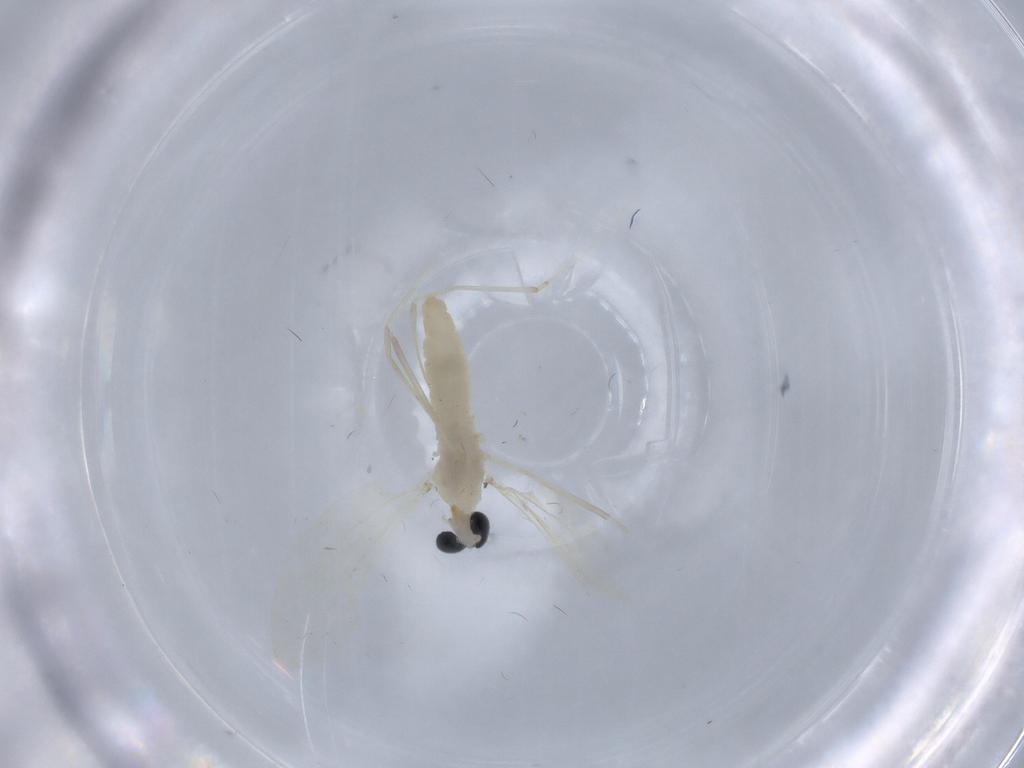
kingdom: Animalia
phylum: Arthropoda
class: Insecta
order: Diptera
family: Cecidomyiidae
